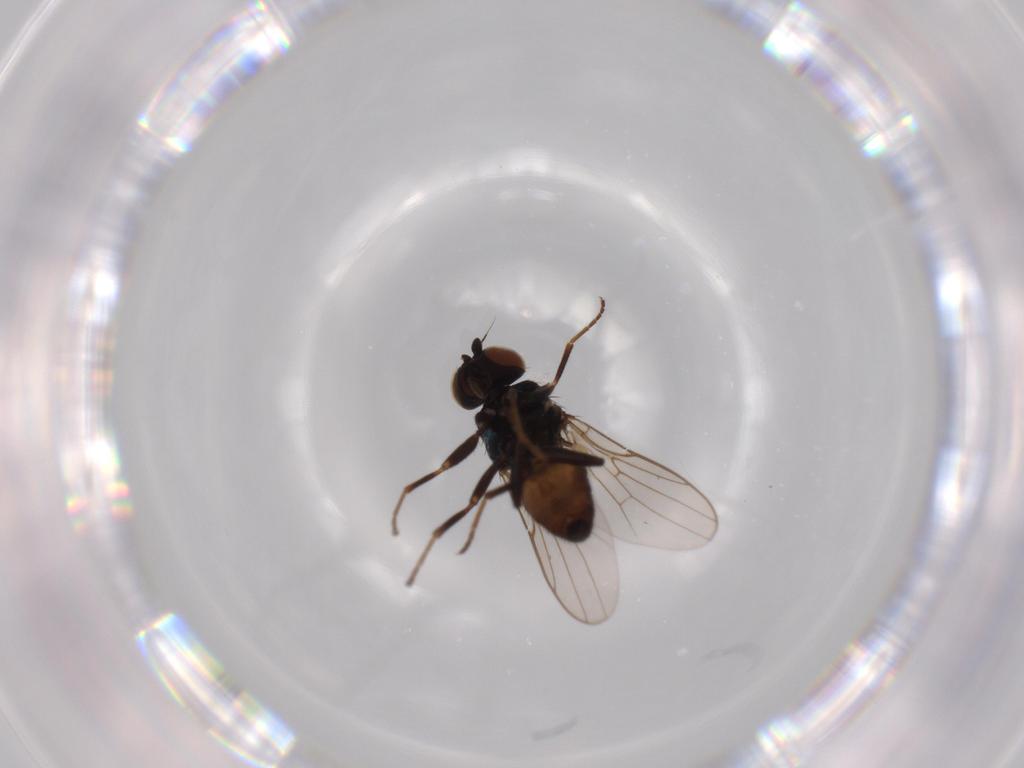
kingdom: Animalia
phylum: Arthropoda
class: Insecta
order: Diptera
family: Chloropidae
